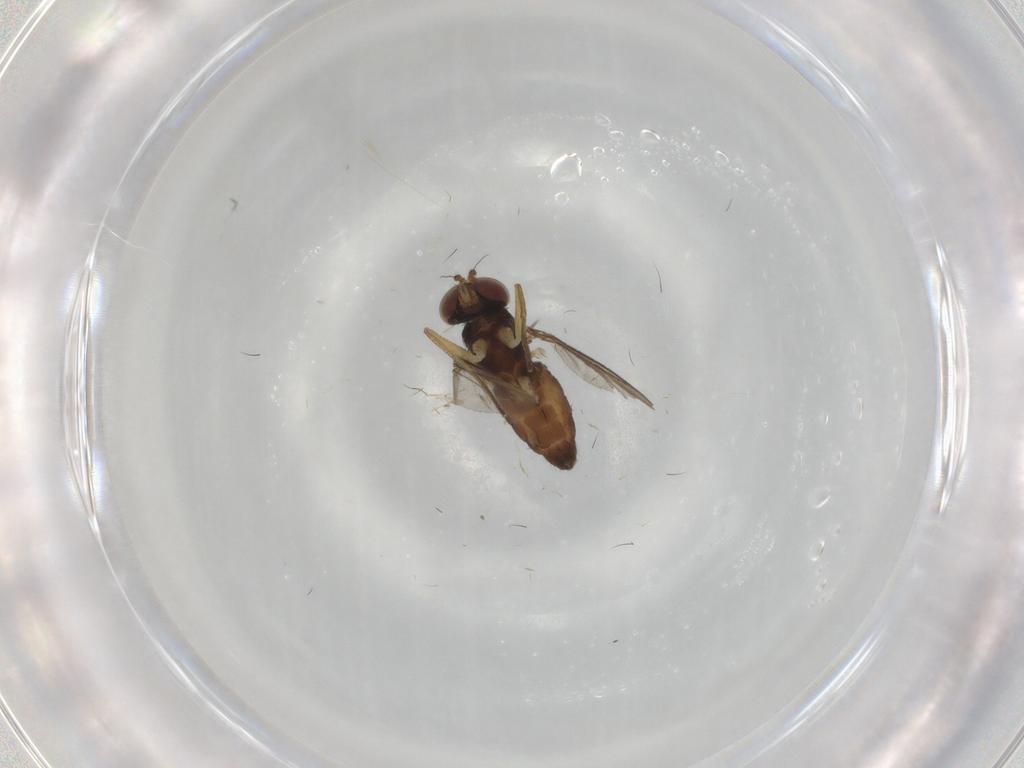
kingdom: Animalia
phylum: Arthropoda
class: Insecta
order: Diptera
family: Dolichopodidae
